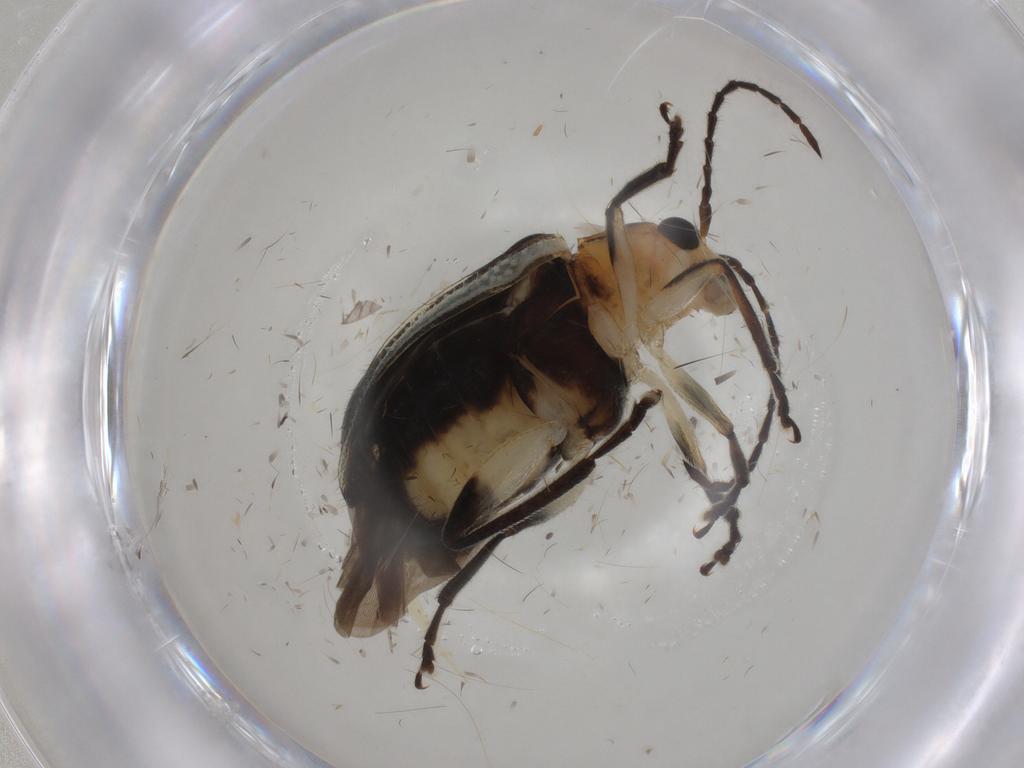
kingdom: Animalia
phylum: Arthropoda
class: Insecta
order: Coleoptera
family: Chrysomelidae
